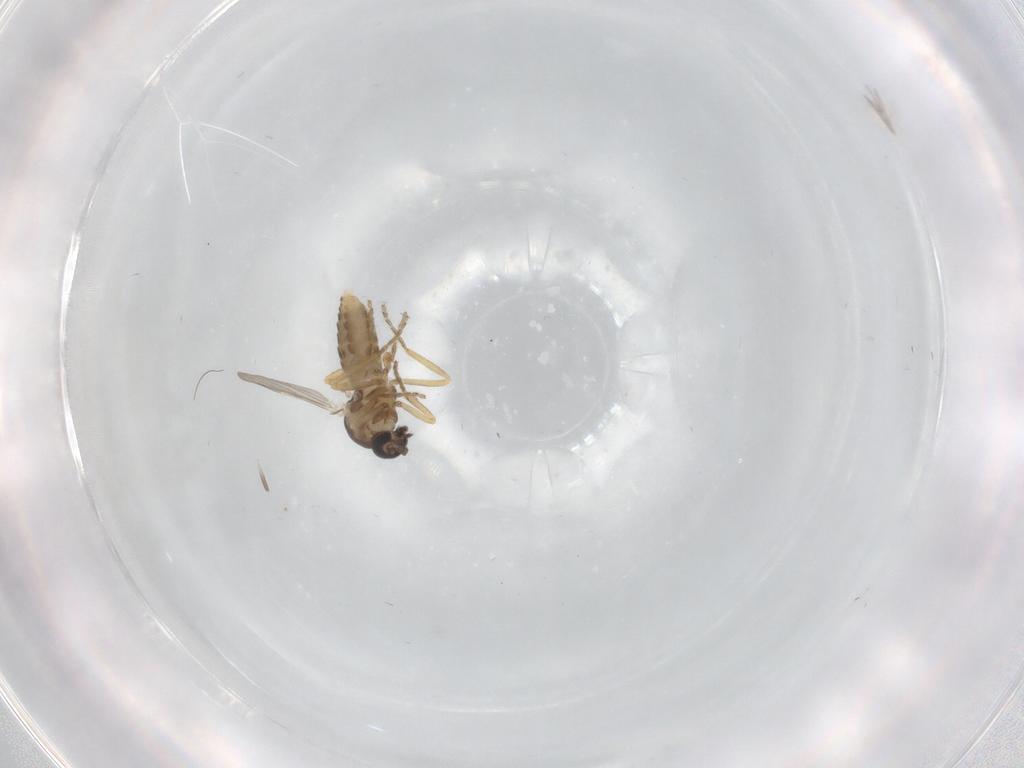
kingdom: Animalia
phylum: Arthropoda
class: Insecta
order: Diptera
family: Ceratopogonidae
